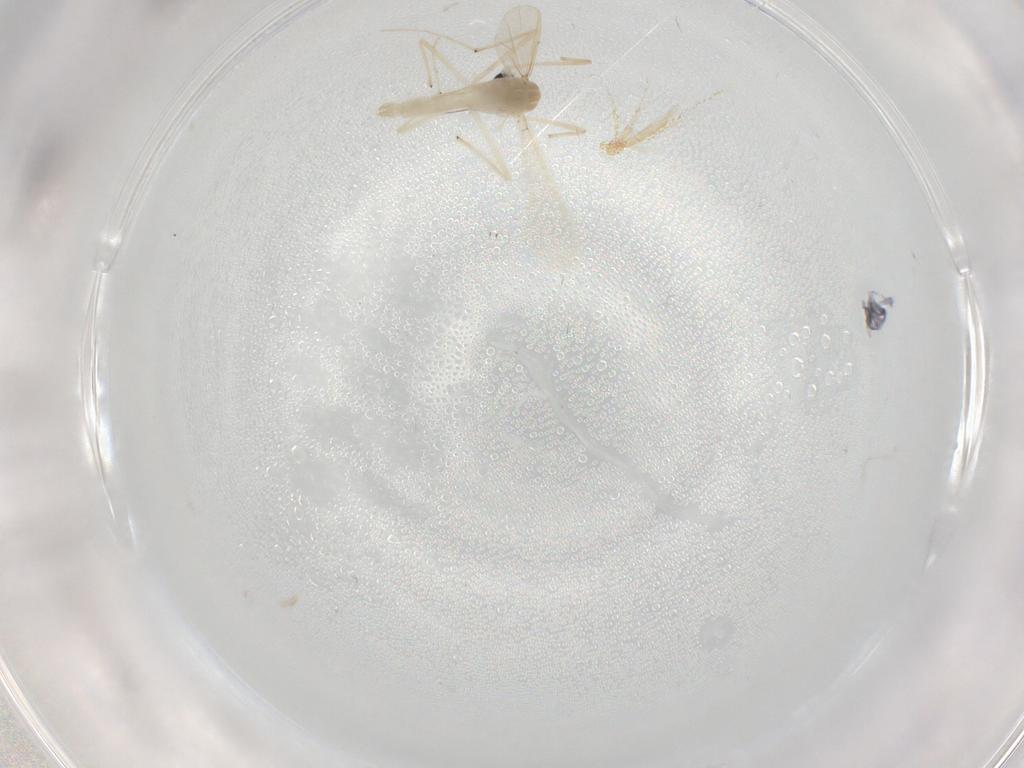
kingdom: Animalia
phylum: Arthropoda
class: Insecta
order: Diptera
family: Chironomidae
